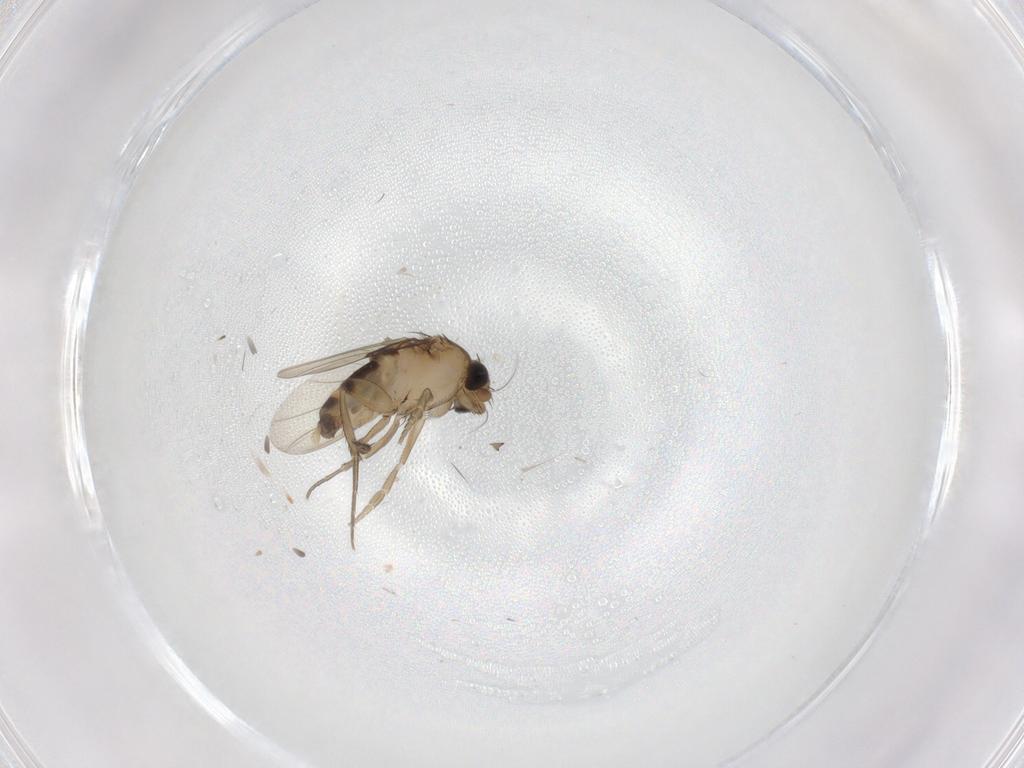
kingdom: Animalia
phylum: Arthropoda
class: Insecta
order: Diptera
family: Phoridae
